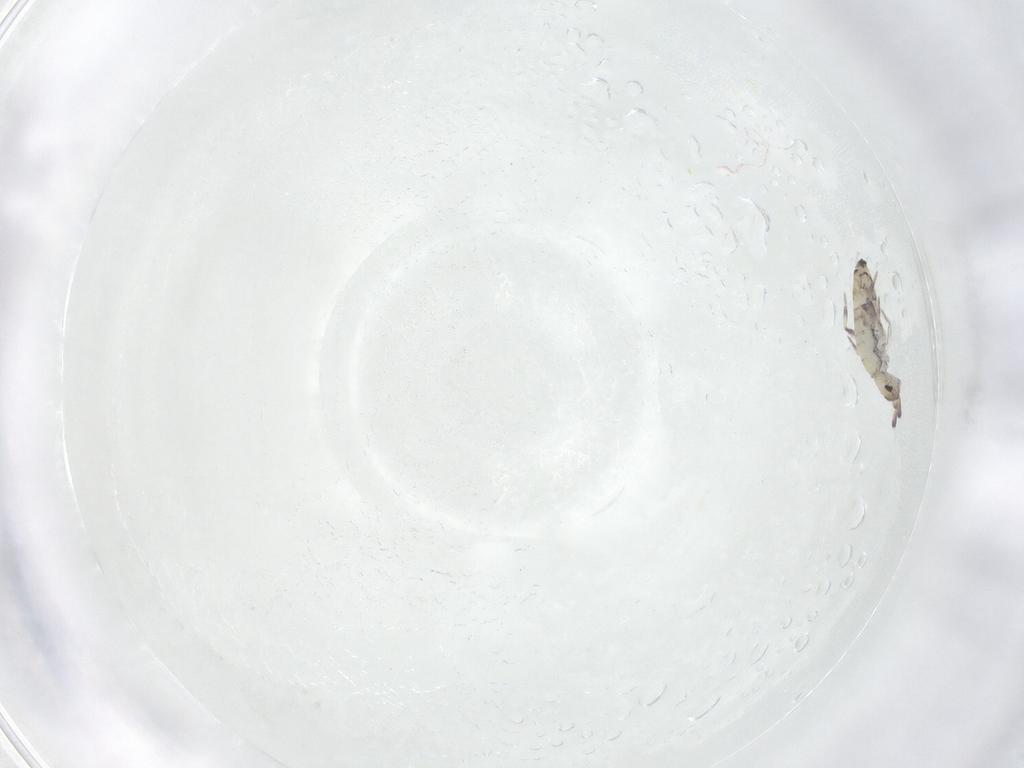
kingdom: Animalia
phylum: Arthropoda
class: Collembola
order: Entomobryomorpha
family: Entomobryidae
